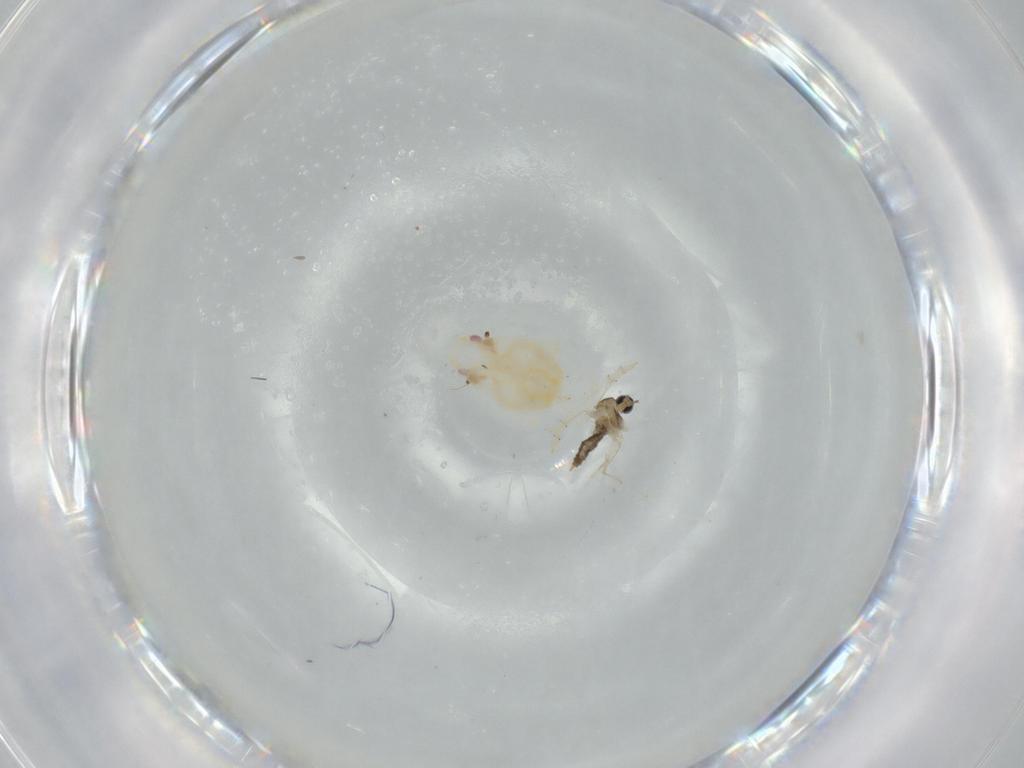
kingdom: Animalia
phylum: Arthropoda
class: Insecta
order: Hemiptera
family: Flatidae
